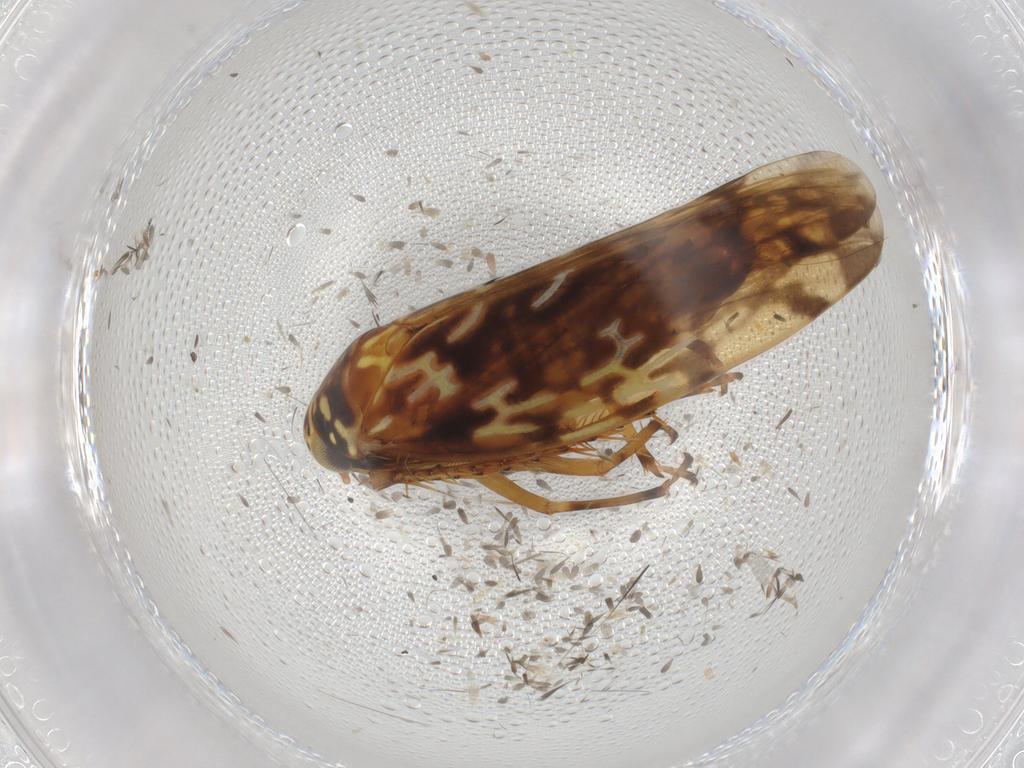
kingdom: Animalia
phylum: Arthropoda
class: Insecta
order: Hemiptera
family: Cicadellidae
